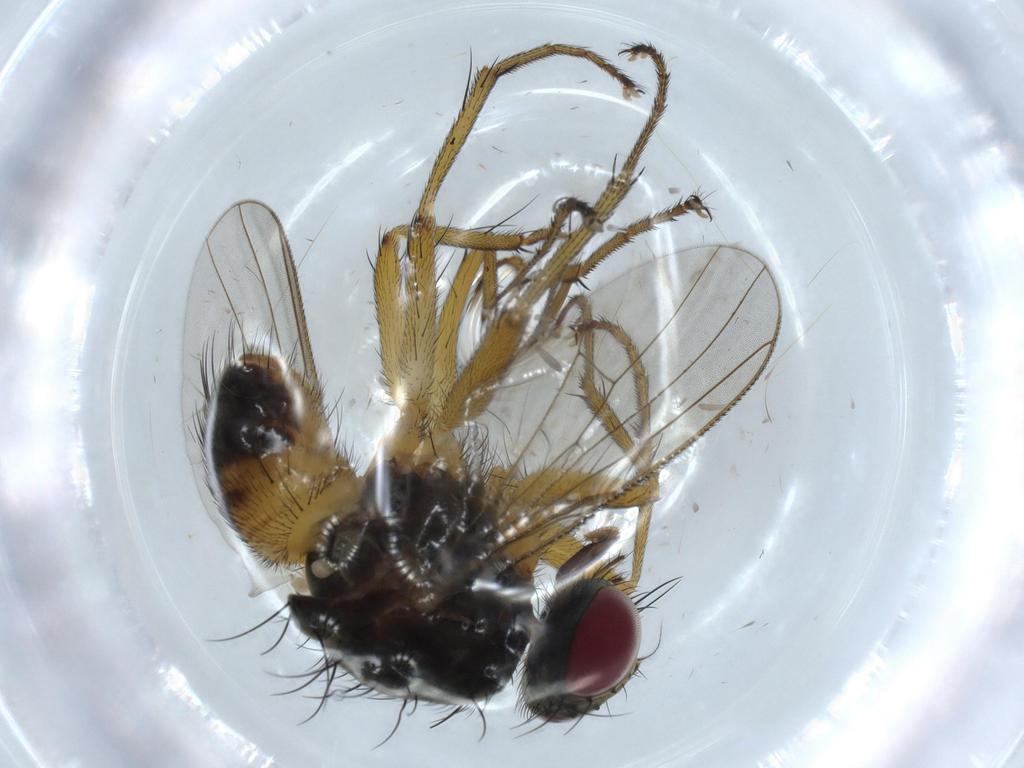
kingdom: Animalia
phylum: Arthropoda
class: Insecta
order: Diptera
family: Muscidae
